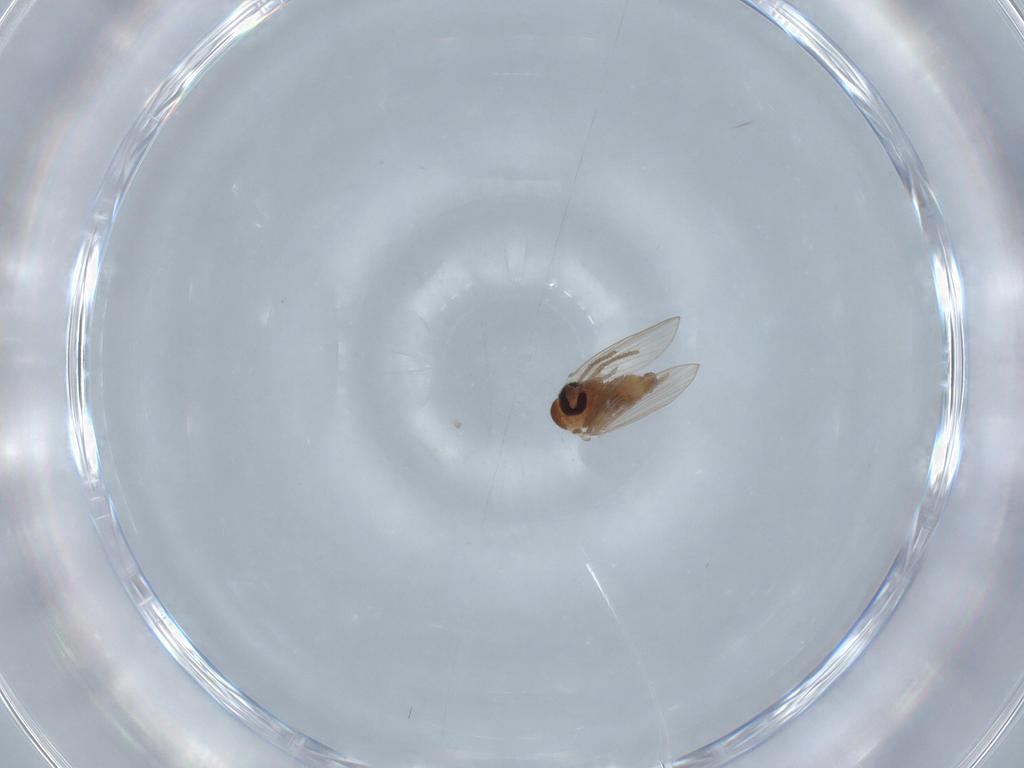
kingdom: Animalia
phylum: Arthropoda
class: Insecta
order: Diptera
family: Psychodidae
